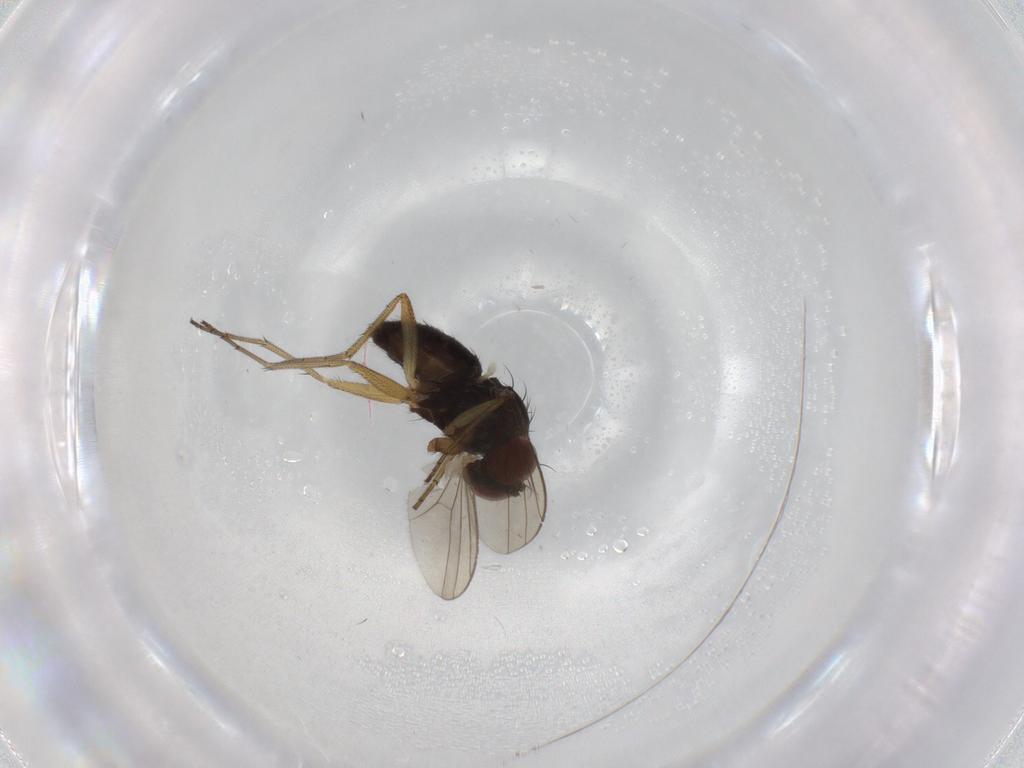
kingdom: Animalia
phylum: Arthropoda
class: Insecta
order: Diptera
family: Dolichopodidae
